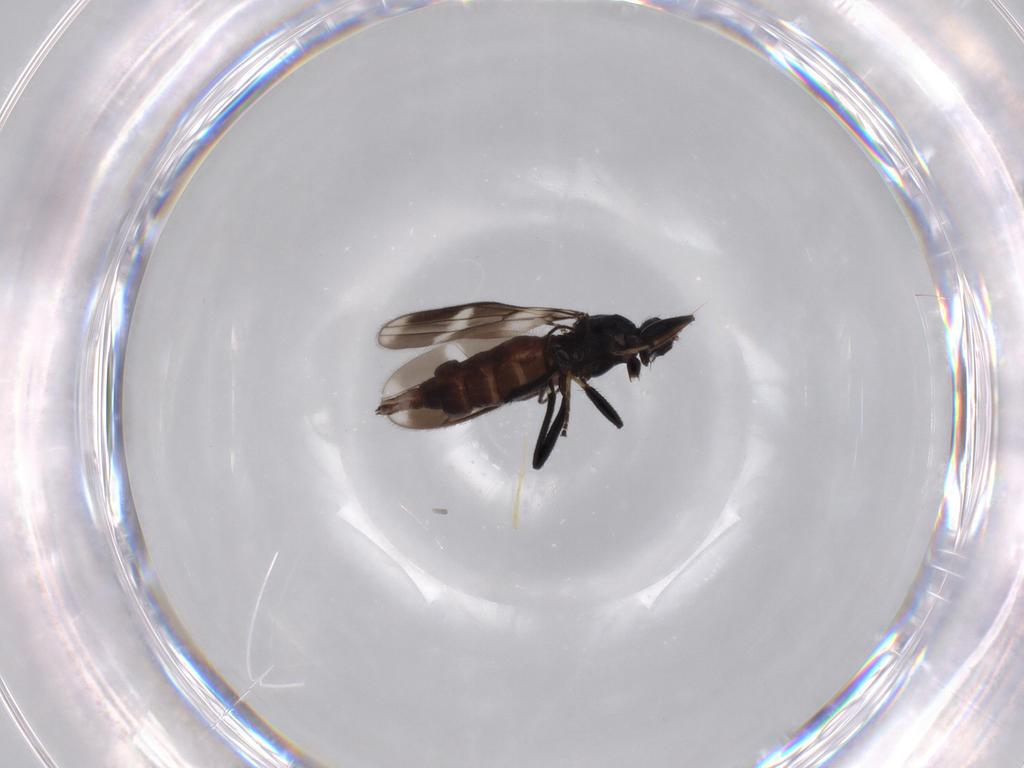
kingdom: Animalia
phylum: Arthropoda
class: Insecta
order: Diptera
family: Hybotidae
